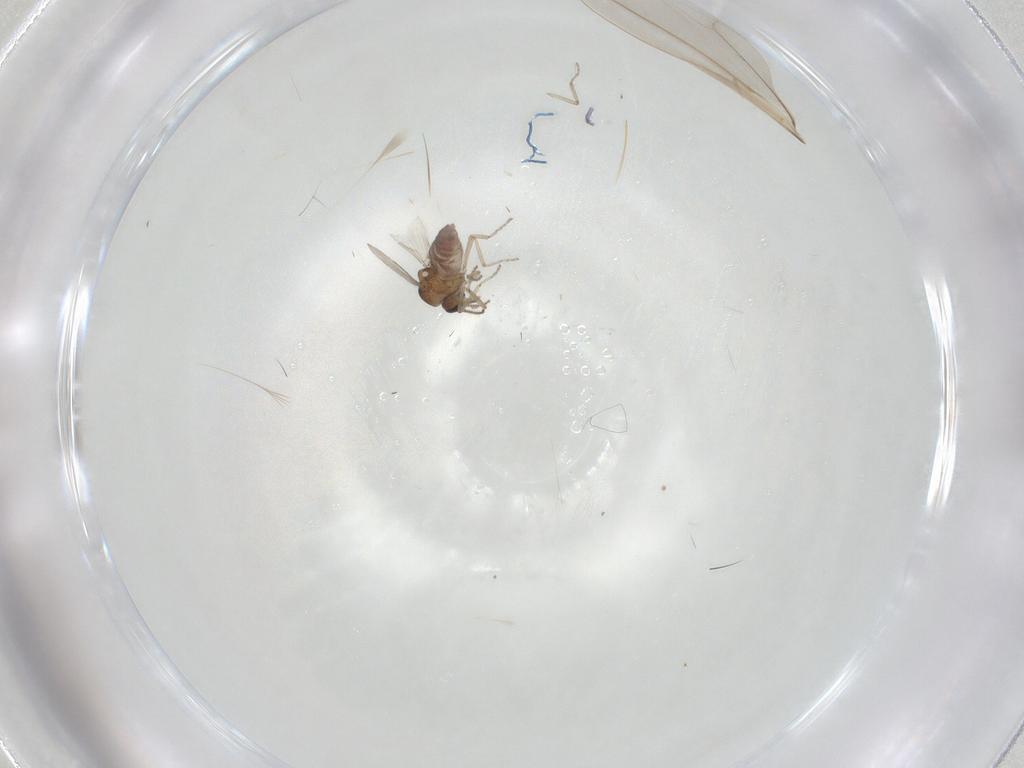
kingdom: Animalia
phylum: Arthropoda
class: Insecta
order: Diptera
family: Ceratopogonidae
